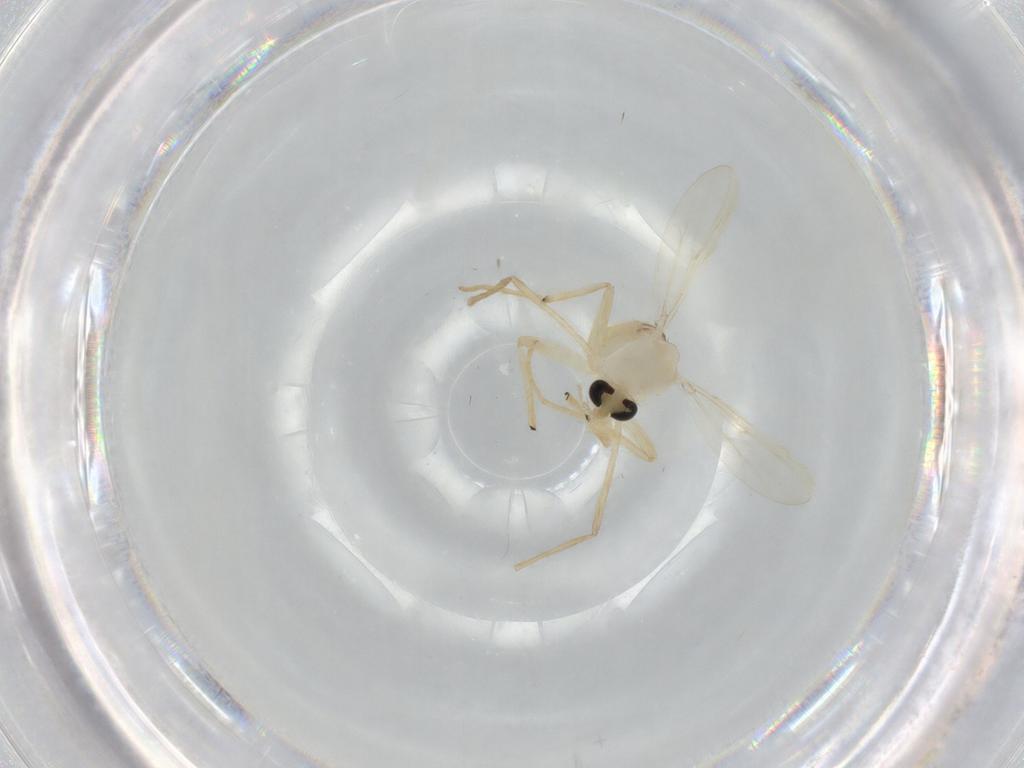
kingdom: Animalia
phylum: Arthropoda
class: Insecta
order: Diptera
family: Chironomidae
